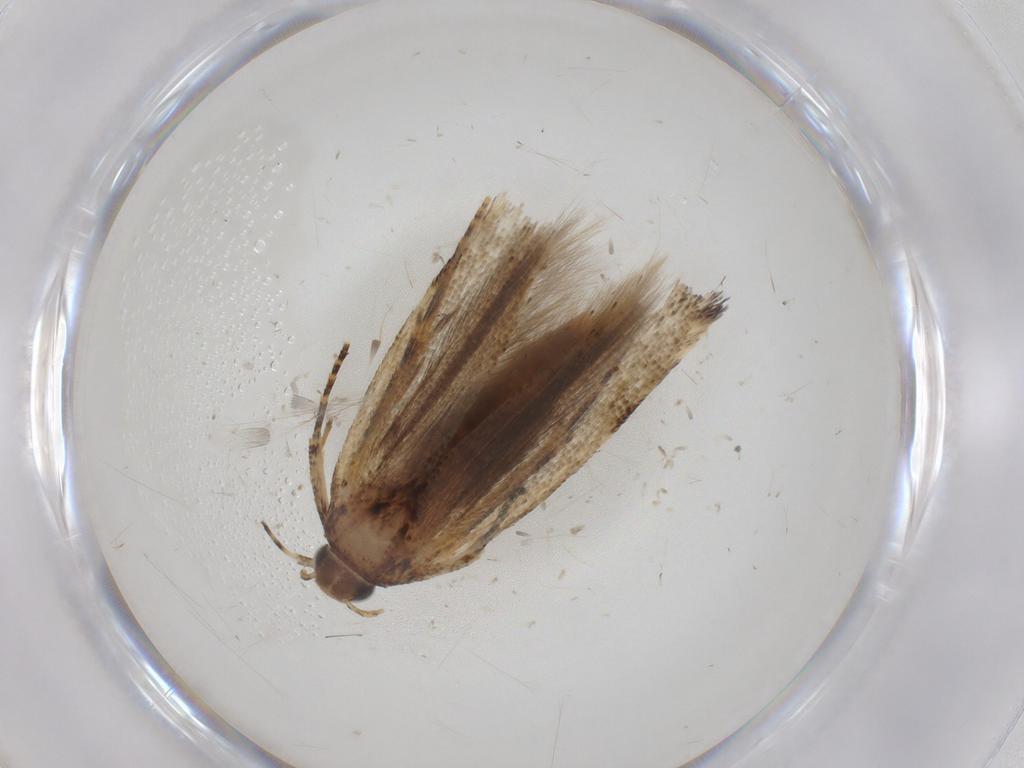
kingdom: Animalia
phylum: Arthropoda
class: Insecta
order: Lepidoptera
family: Gelechiidae
